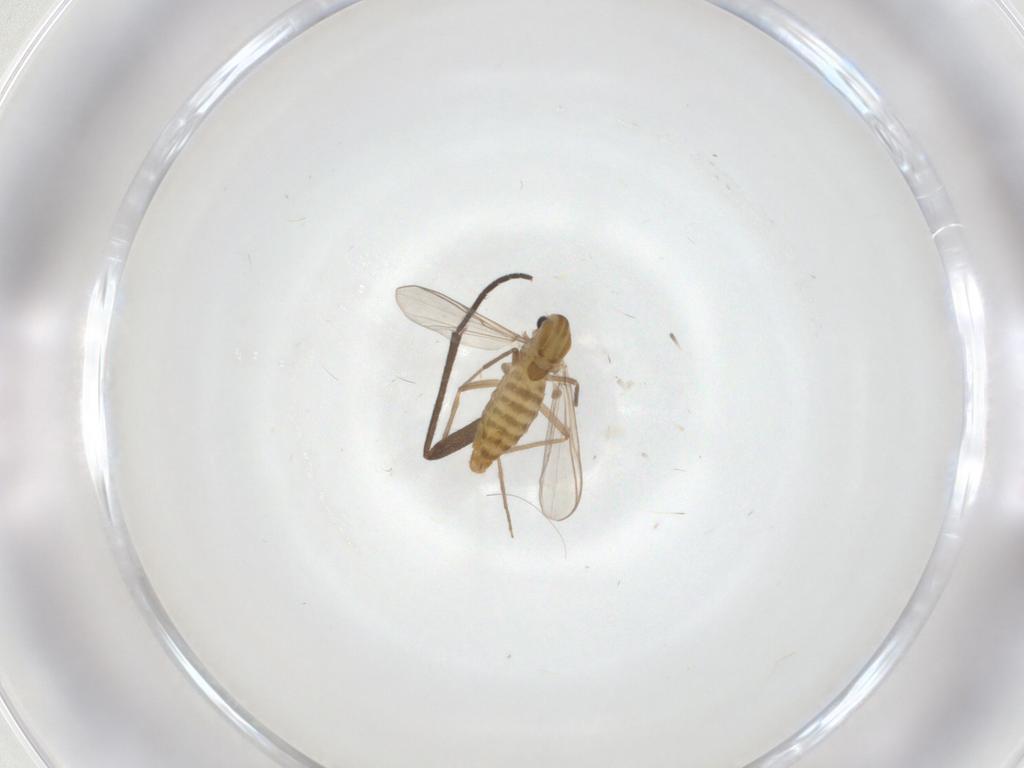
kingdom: Animalia
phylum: Arthropoda
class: Insecta
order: Diptera
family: Chironomidae
